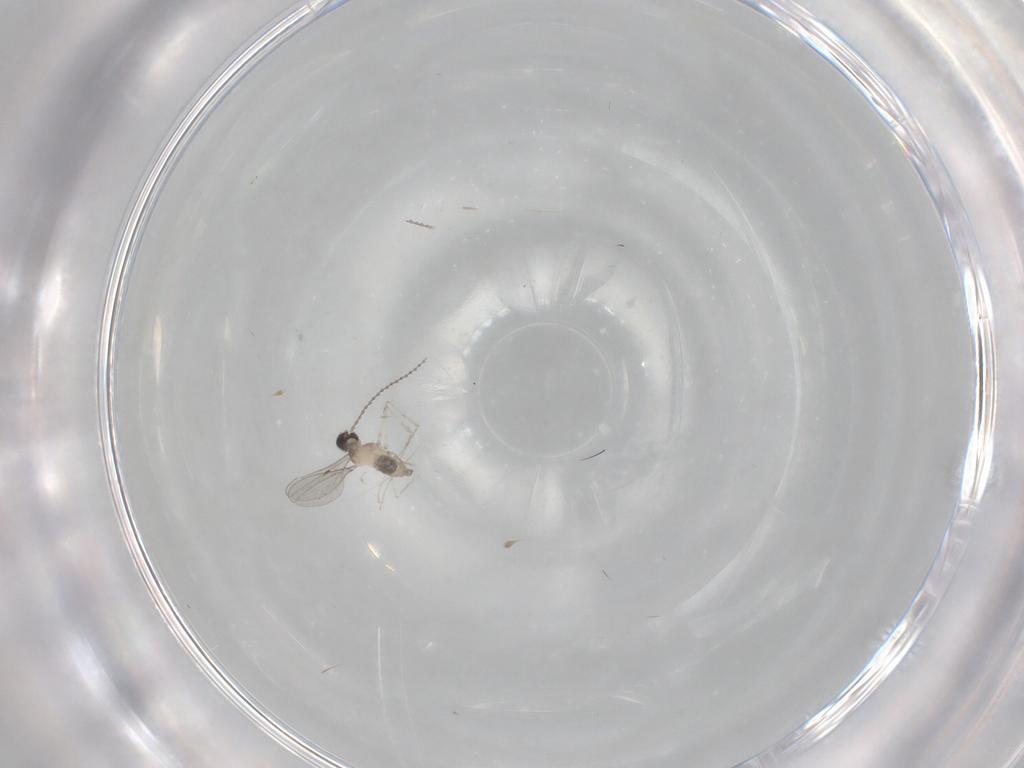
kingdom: Animalia
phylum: Arthropoda
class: Insecta
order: Diptera
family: Cecidomyiidae
